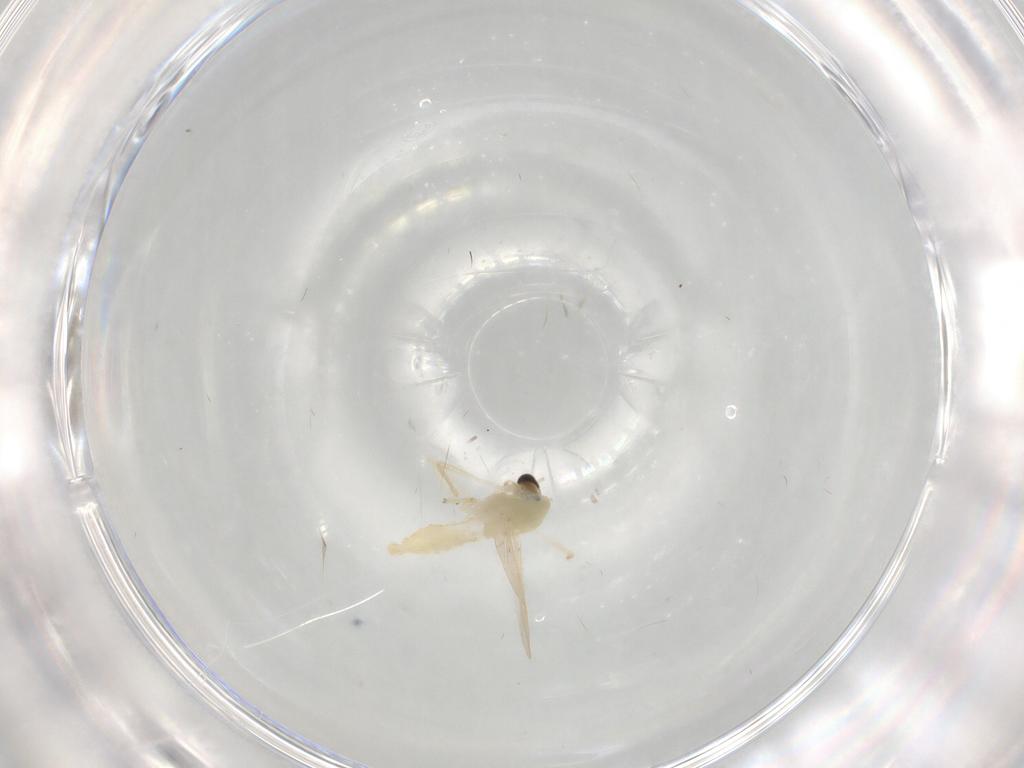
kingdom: Animalia
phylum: Arthropoda
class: Insecta
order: Diptera
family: Chironomidae
